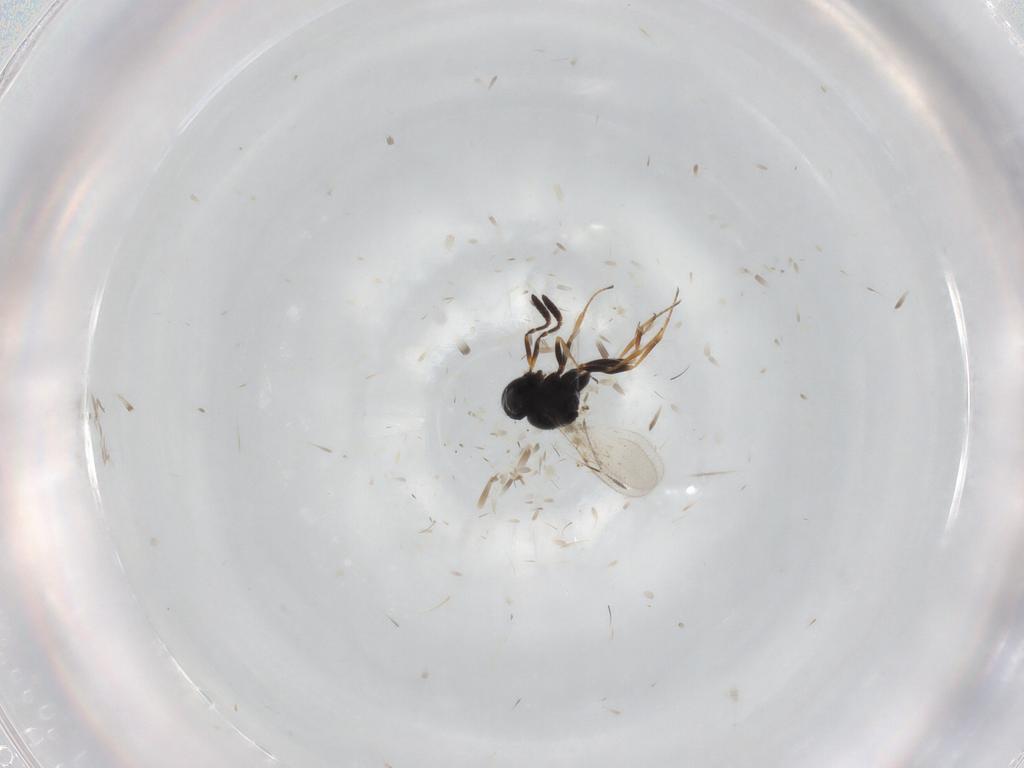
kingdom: Animalia
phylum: Arthropoda
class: Insecta
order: Coleoptera
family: Curculionidae
